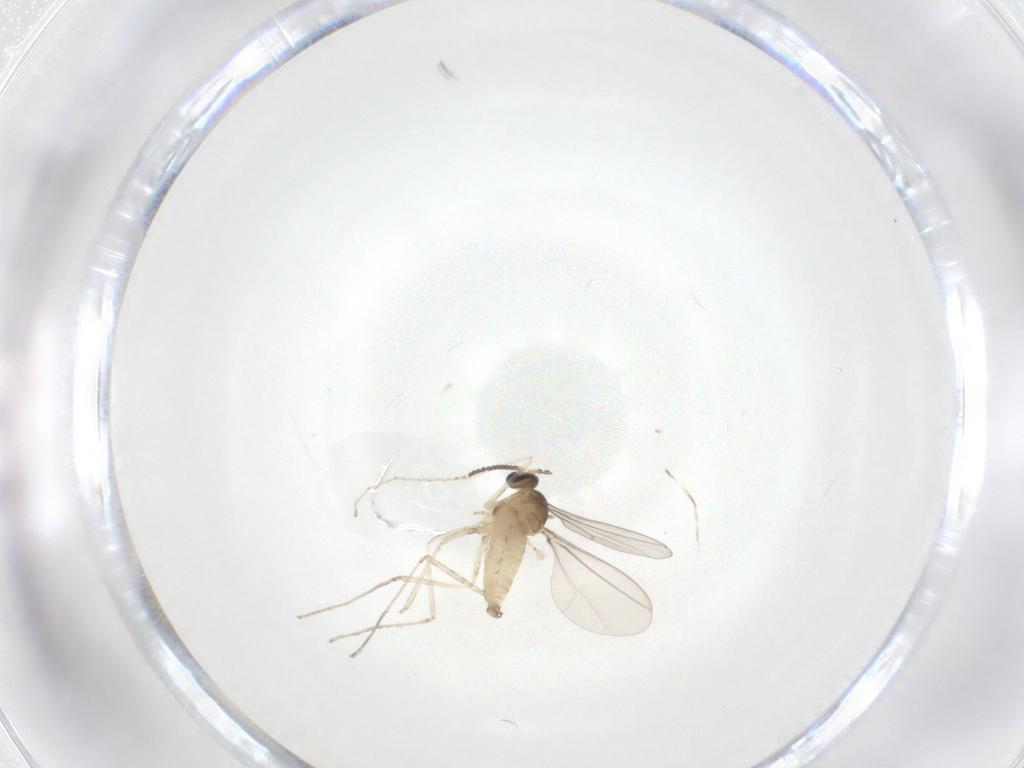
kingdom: Animalia
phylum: Arthropoda
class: Insecta
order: Diptera
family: Cecidomyiidae
